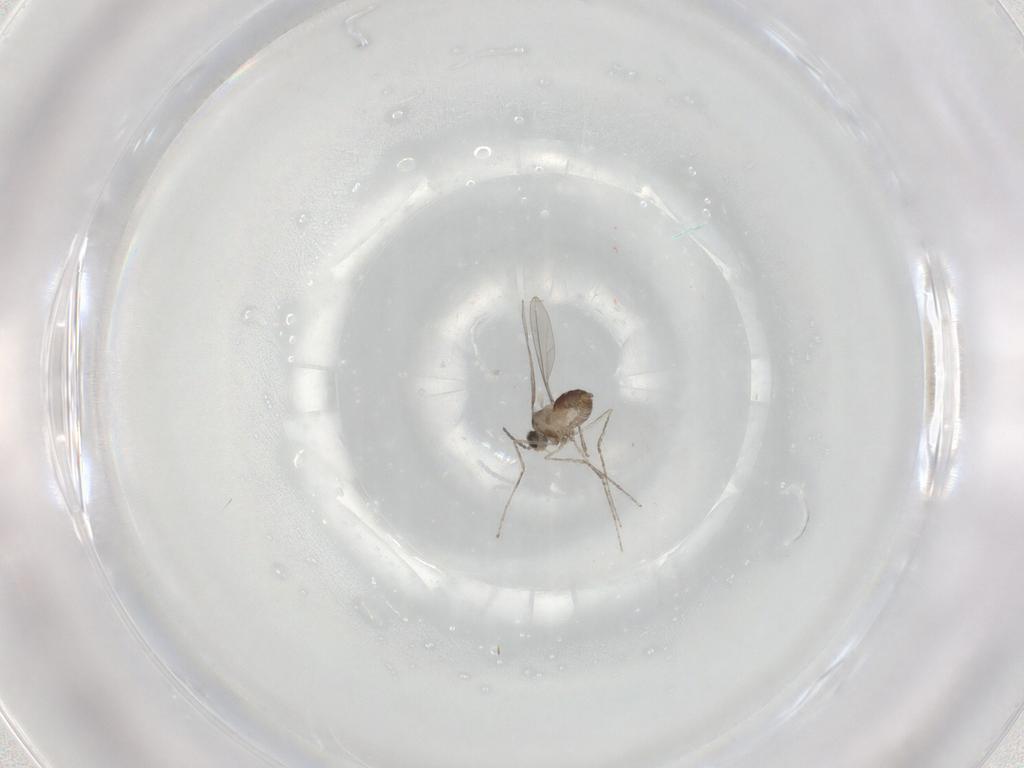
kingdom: Animalia
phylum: Arthropoda
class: Insecta
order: Diptera
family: Cecidomyiidae
